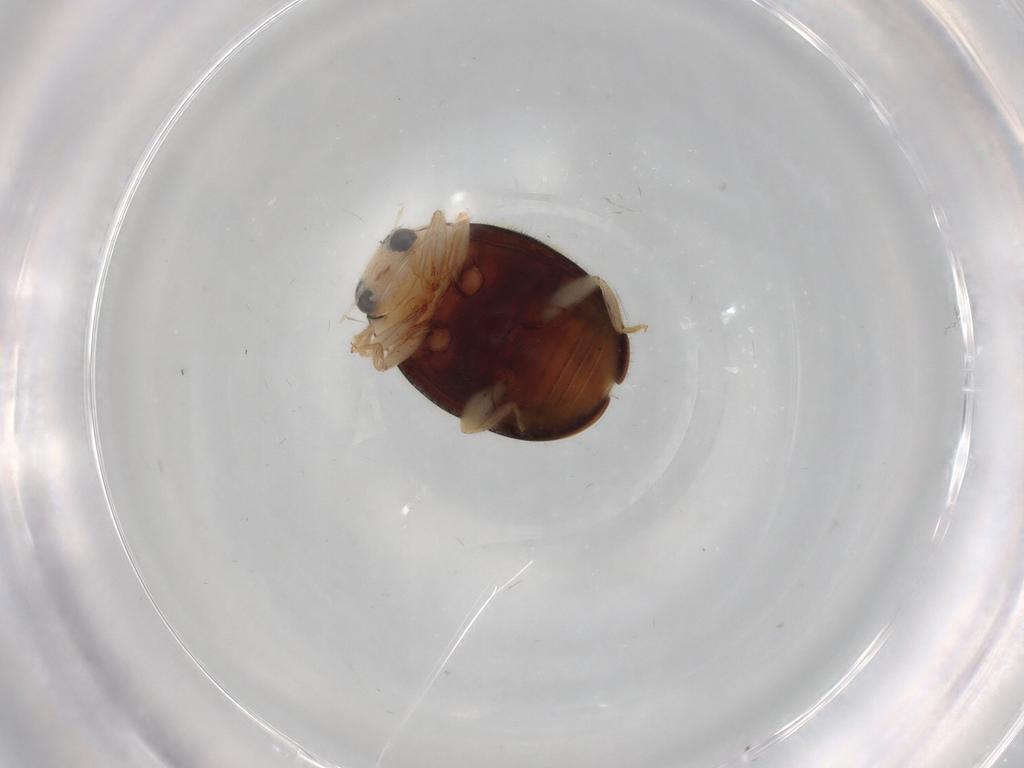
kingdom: Animalia
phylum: Arthropoda
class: Insecta
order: Coleoptera
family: Coccinellidae
